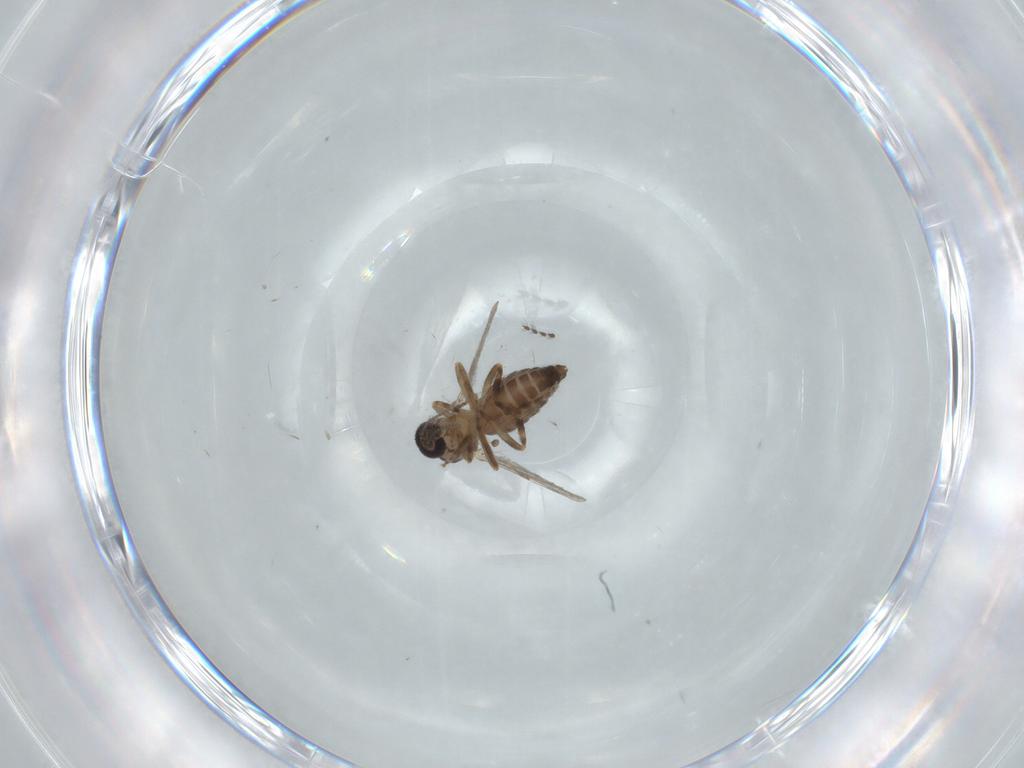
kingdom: Animalia
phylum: Arthropoda
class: Insecta
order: Diptera
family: Ceratopogonidae
